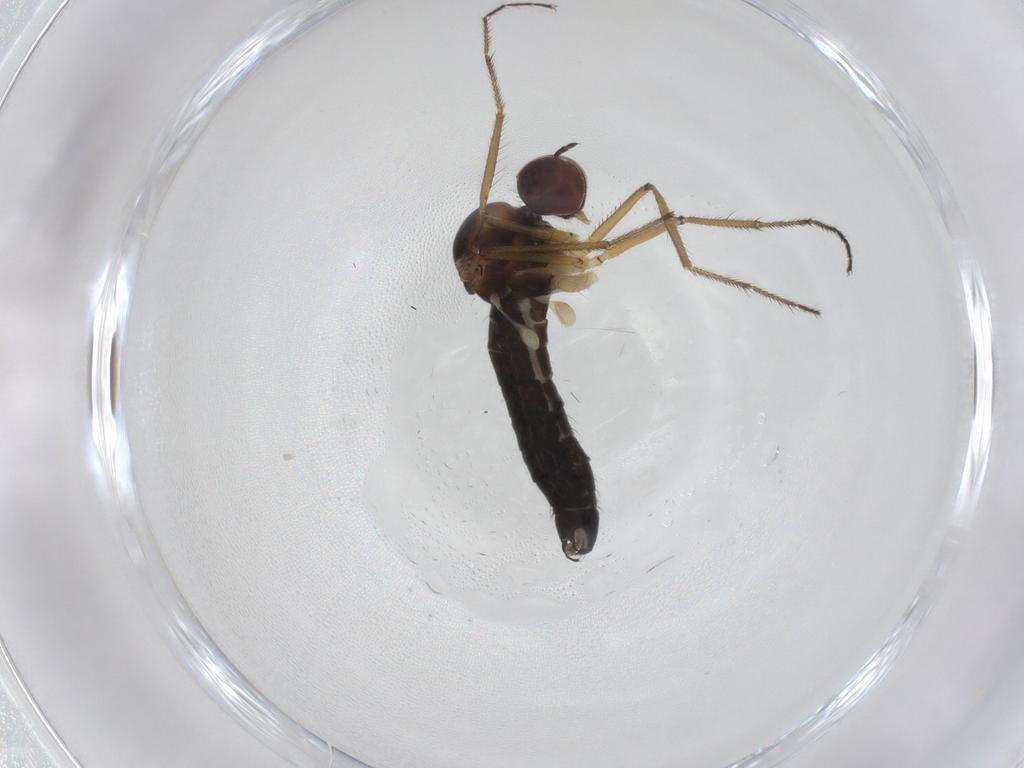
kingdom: Animalia
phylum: Arthropoda
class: Insecta
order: Diptera
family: Hybotidae
